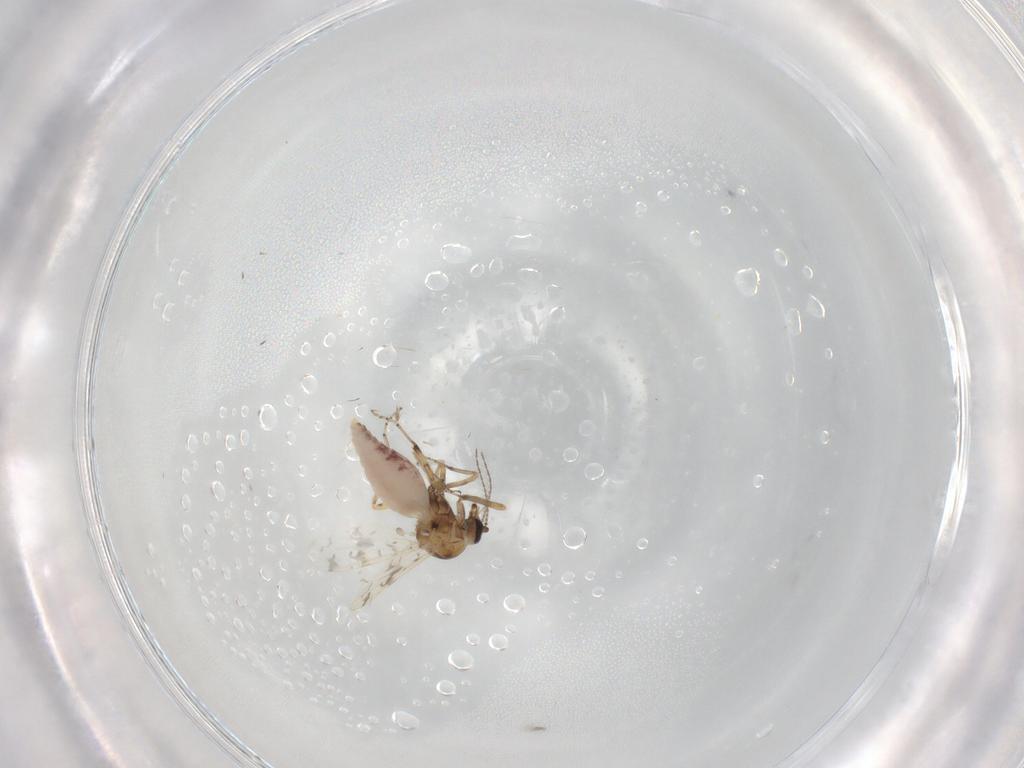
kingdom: Animalia
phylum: Arthropoda
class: Insecta
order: Diptera
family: Ceratopogonidae
